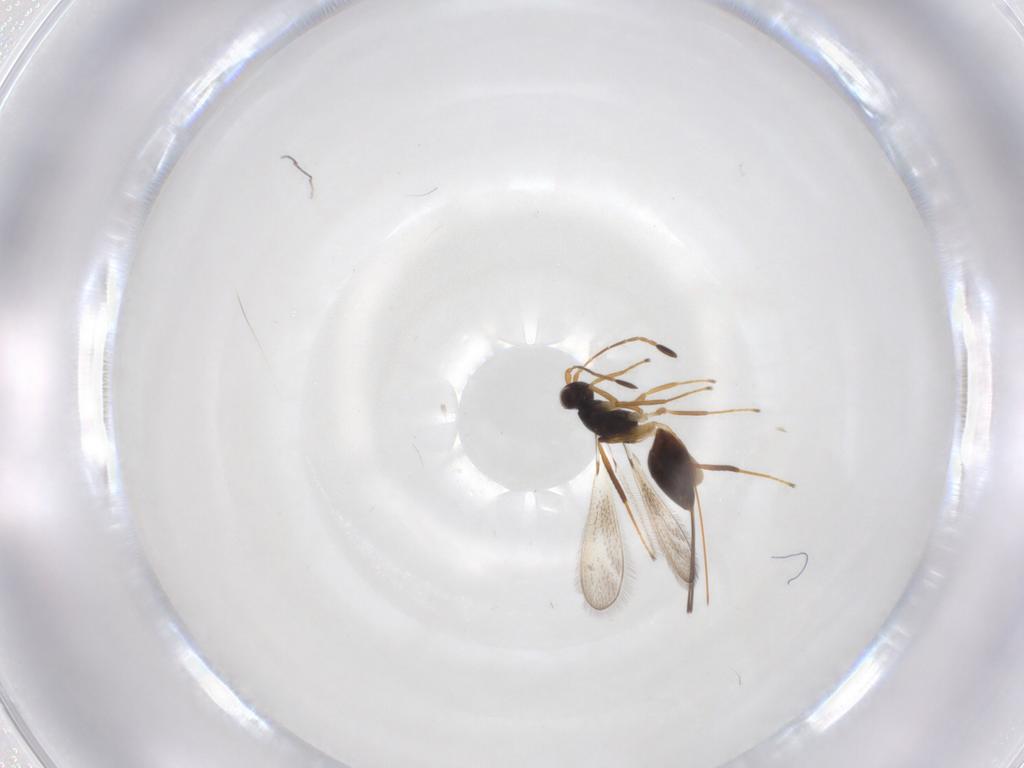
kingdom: Animalia
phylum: Arthropoda
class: Insecta
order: Hymenoptera
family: Mymaridae
